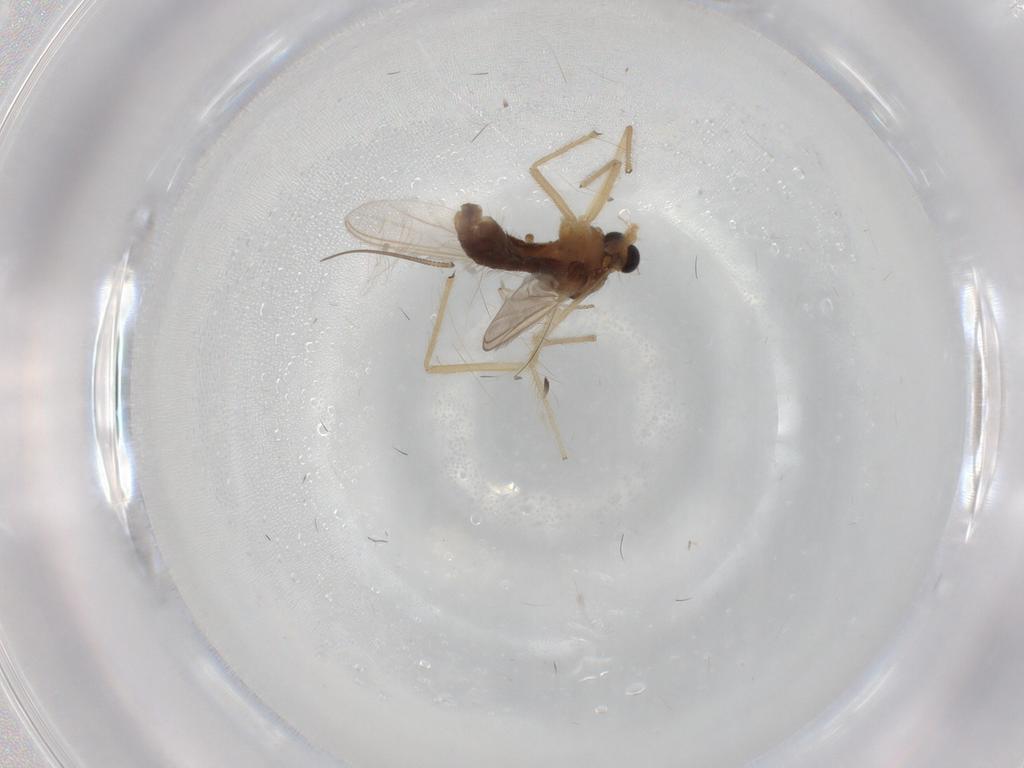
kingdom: Animalia
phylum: Arthropoda
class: Insecta
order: Diptera
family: Chironomidae
